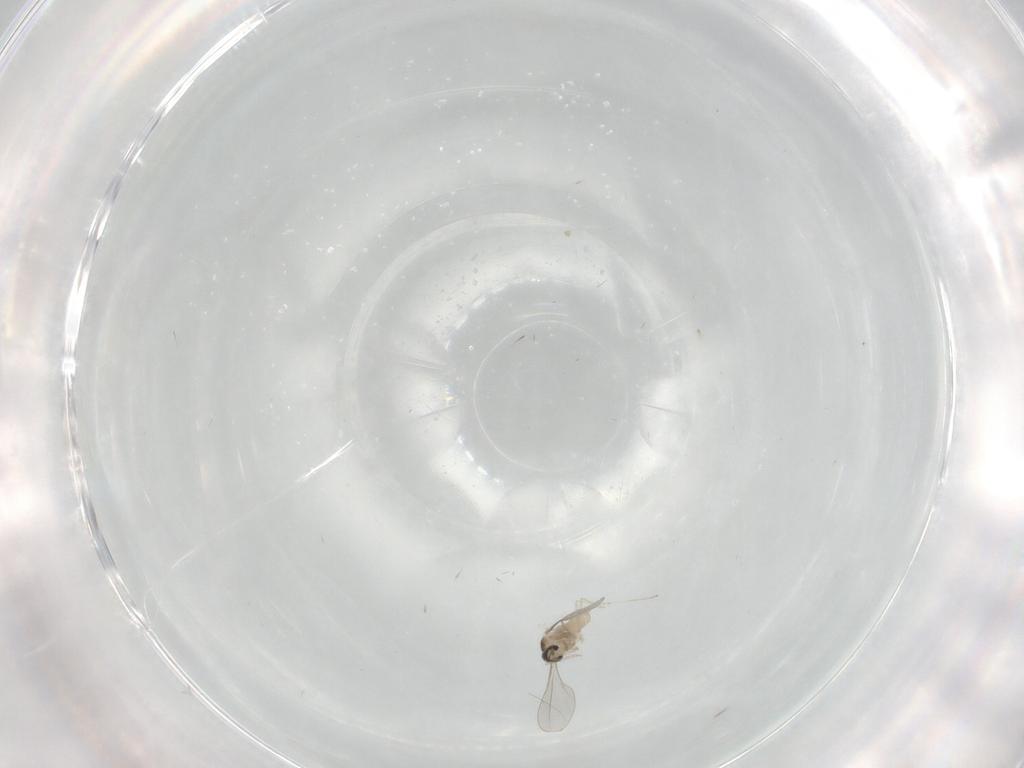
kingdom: Animalia
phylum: Arthropoda
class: Insecta
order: Diptera
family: Cecidomyiidae
